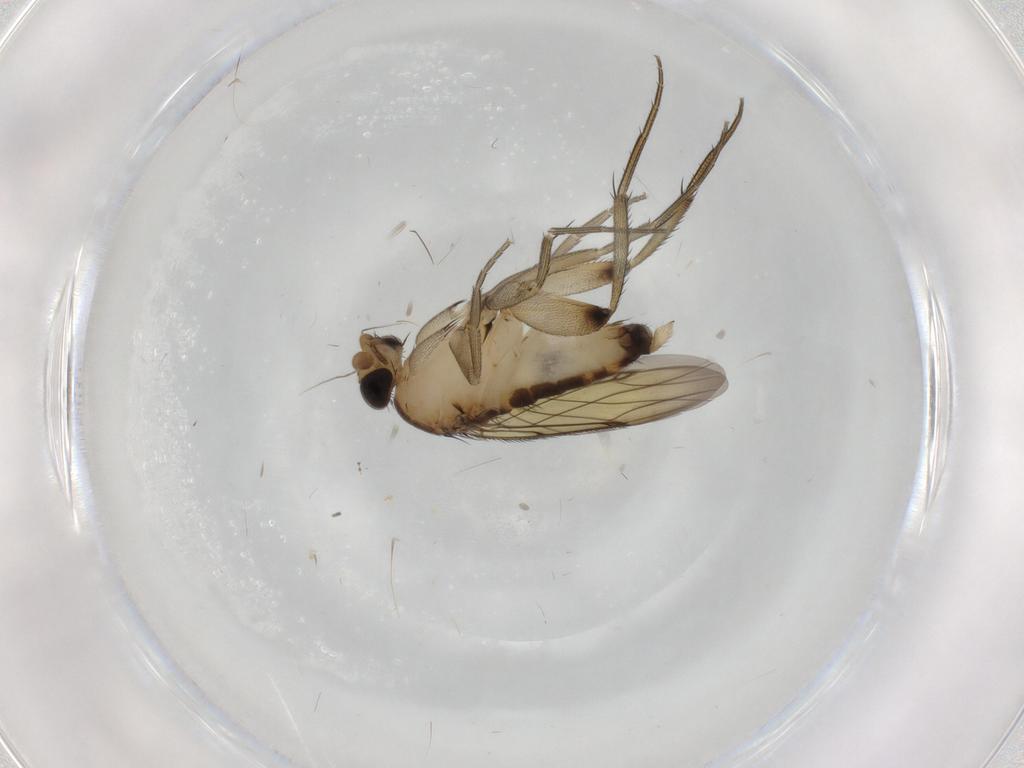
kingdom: Animalia
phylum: Arthropoda
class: Insecta
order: Diptera
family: Phoridae
